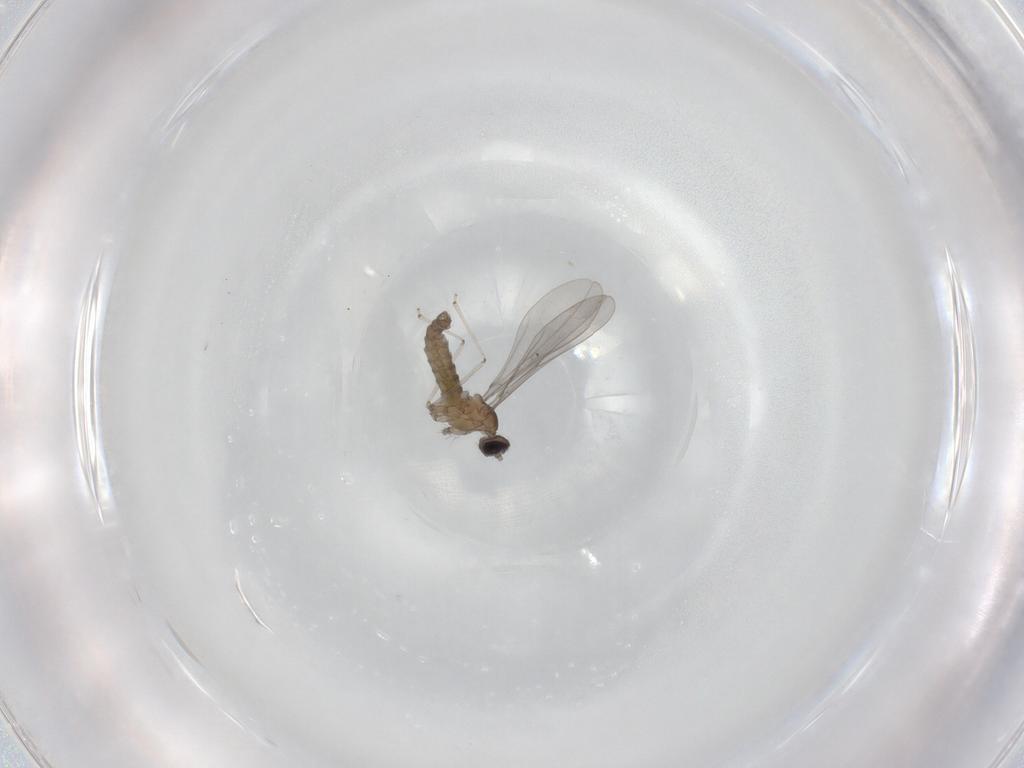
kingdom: Animalia
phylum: Arthropoda
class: Insecta
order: Diptera
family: Cecidomyiidae
